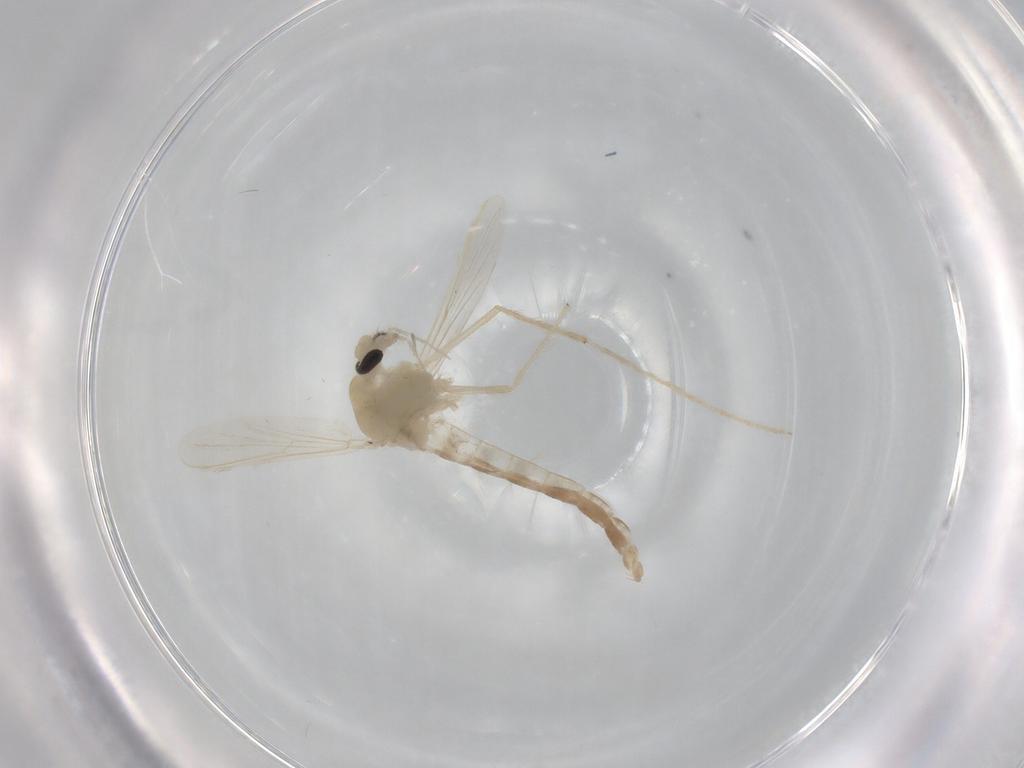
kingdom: Animalia
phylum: Arthropoda
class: Insecta
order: Diptera
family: Chironomidae
